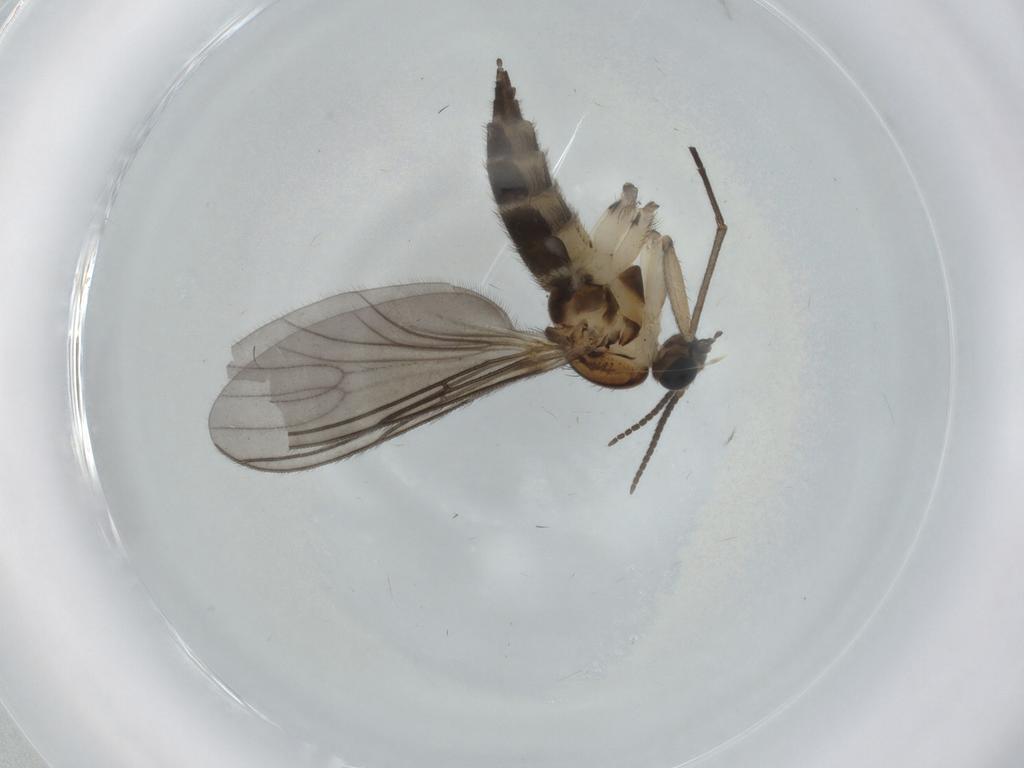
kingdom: Animalia
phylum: Arthropoda
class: Insecta
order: Diptera
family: Sciaridae
